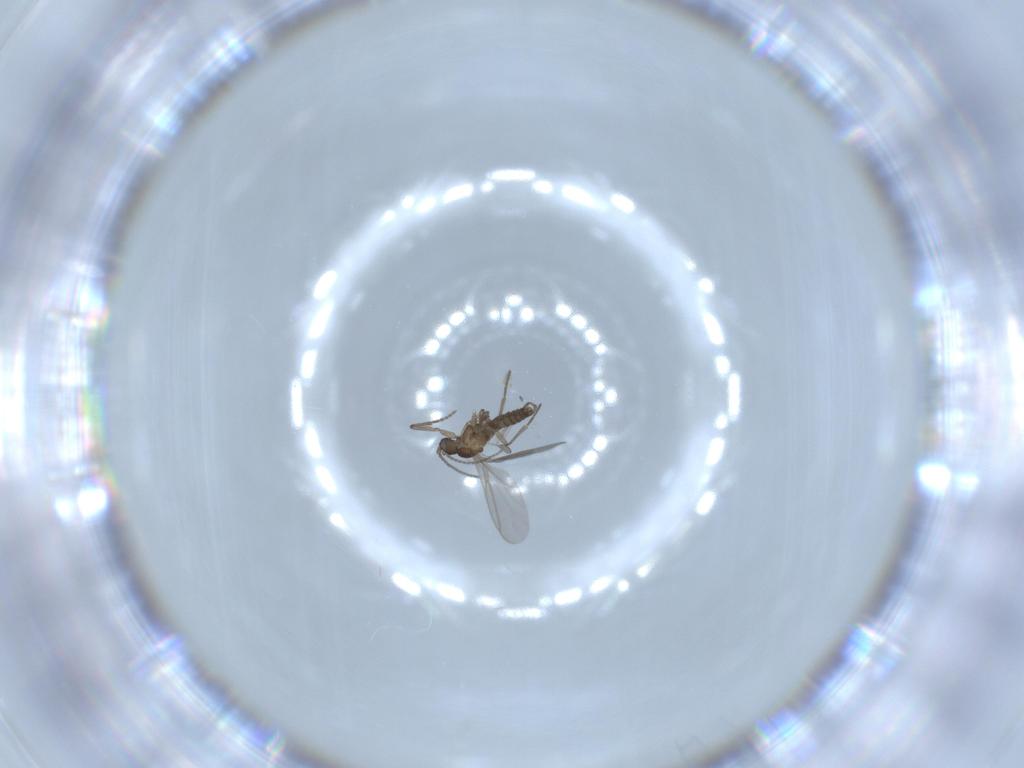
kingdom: Animalia
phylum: Arthropoda
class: Insecta
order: Diptera
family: Sciaridae
